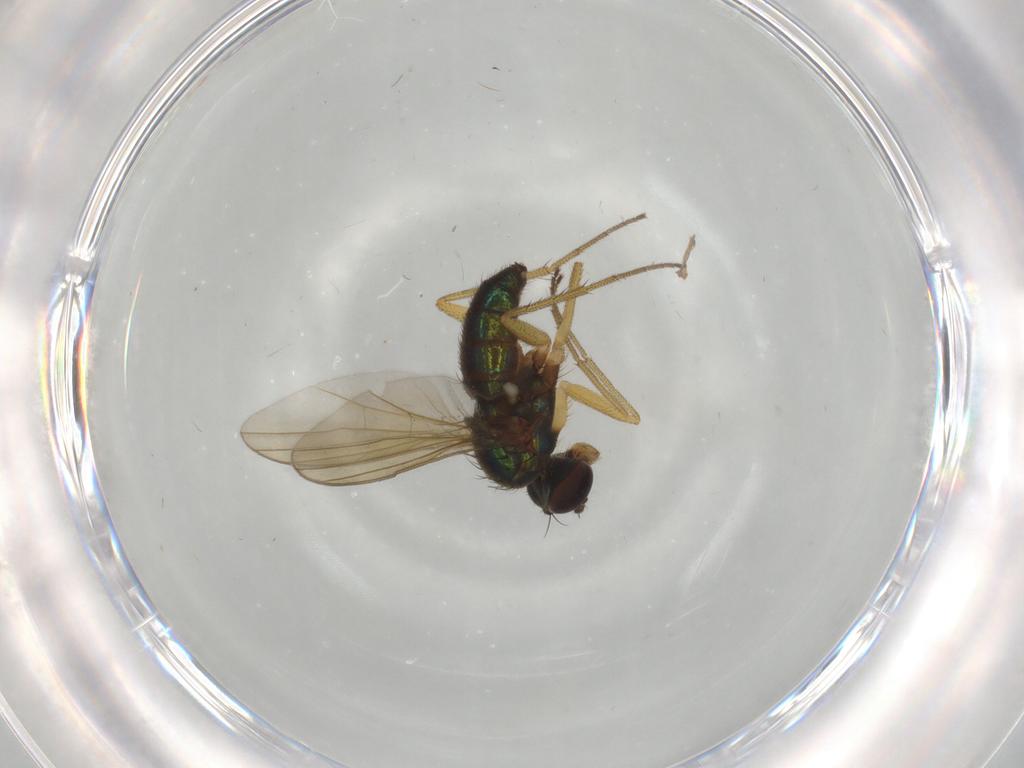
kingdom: Animalia
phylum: Arthropoda
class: Insecta
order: Diptera
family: Dolichopodidae
